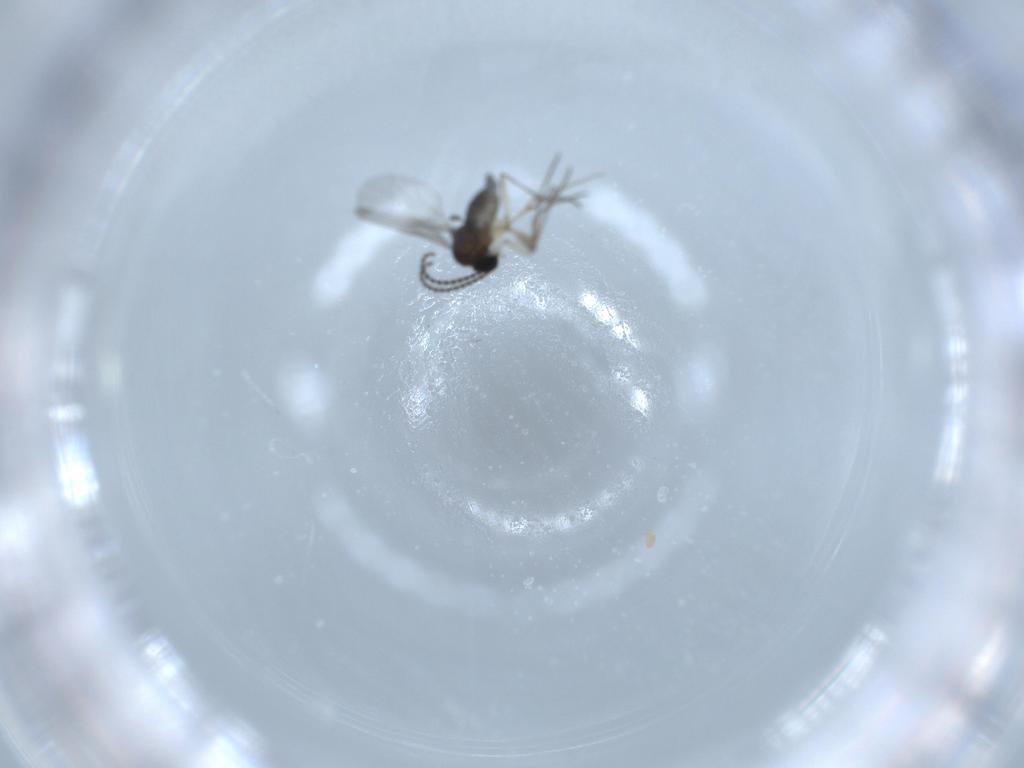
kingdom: Animalia
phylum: Arthropoda
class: Insecta
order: Diptera
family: Sciaridae
